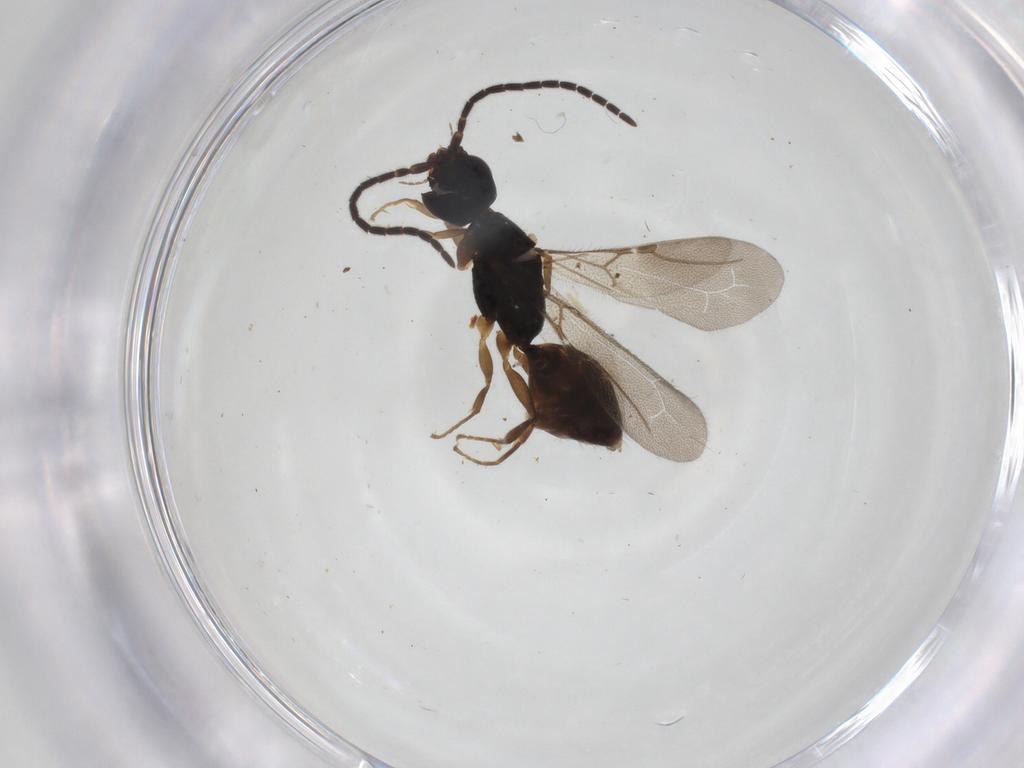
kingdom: Animalia
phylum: Arthropoda
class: Insecta
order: Hymenoptera
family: Bethylidae
